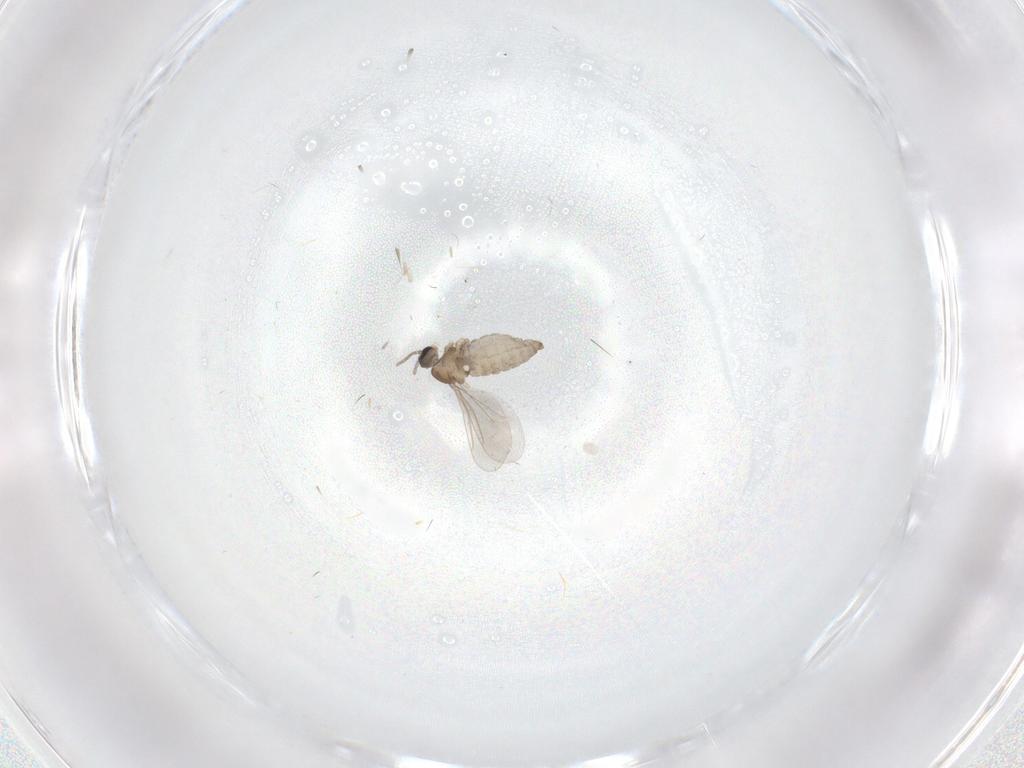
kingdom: Animalia
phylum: Arthropoda
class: Insecta
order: Diptera
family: Cecidomyiidae
